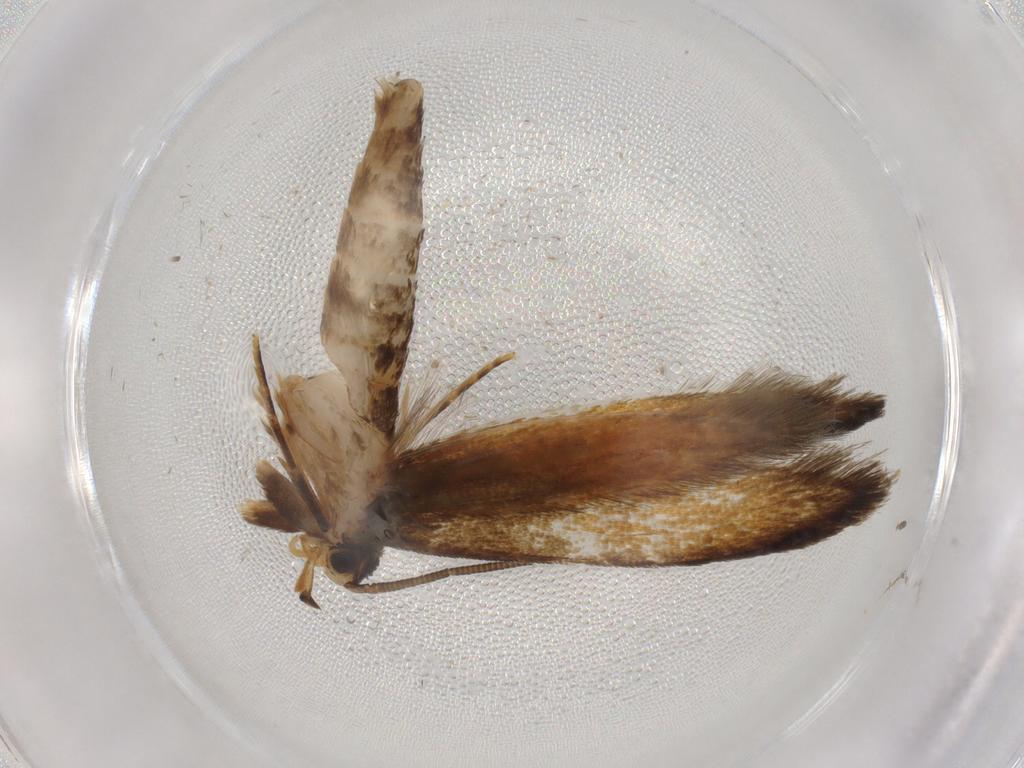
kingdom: Animalia
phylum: Arthropoda
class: Insecta
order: Lepidoptera
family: Tineidae
